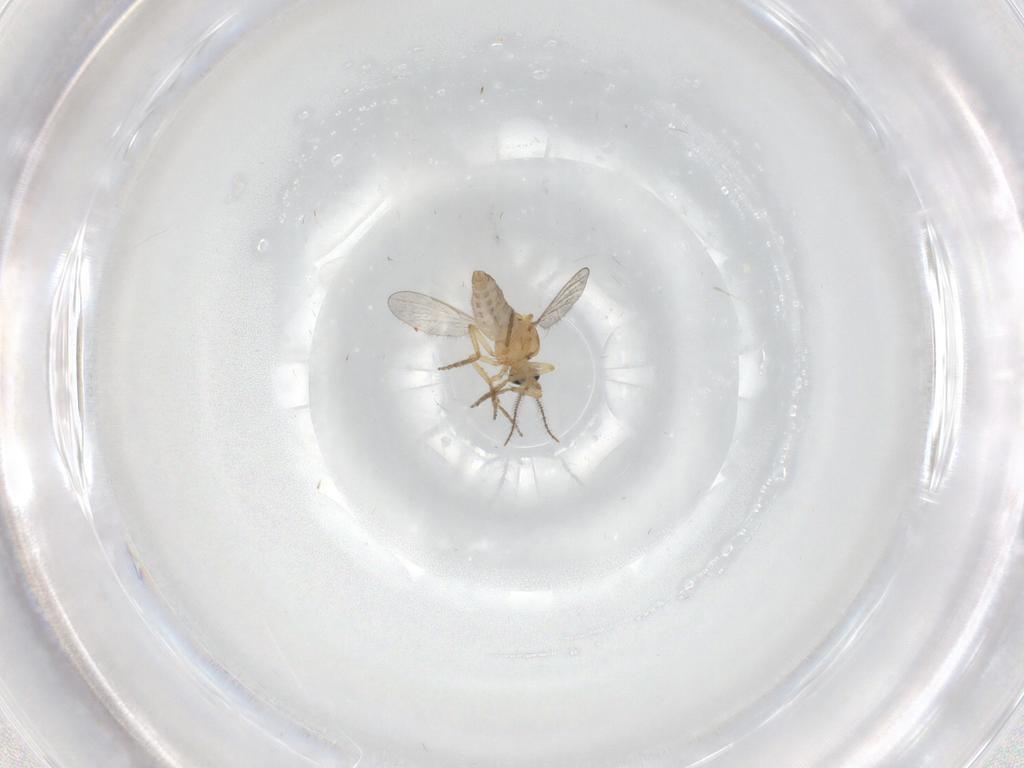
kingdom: Animalia
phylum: Arthropoda
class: Insecta
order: Diptera
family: Ceratopogonidae
